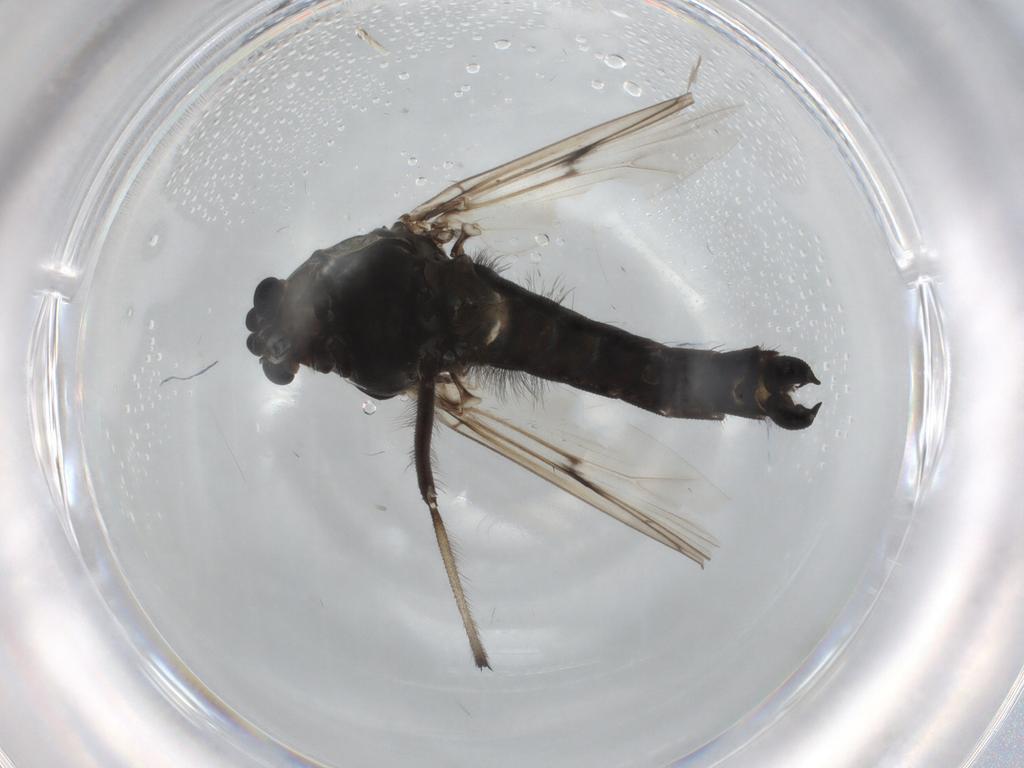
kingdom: Animalia
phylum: Arthropoda
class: Insecta
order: Diptera
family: Chironomidae
